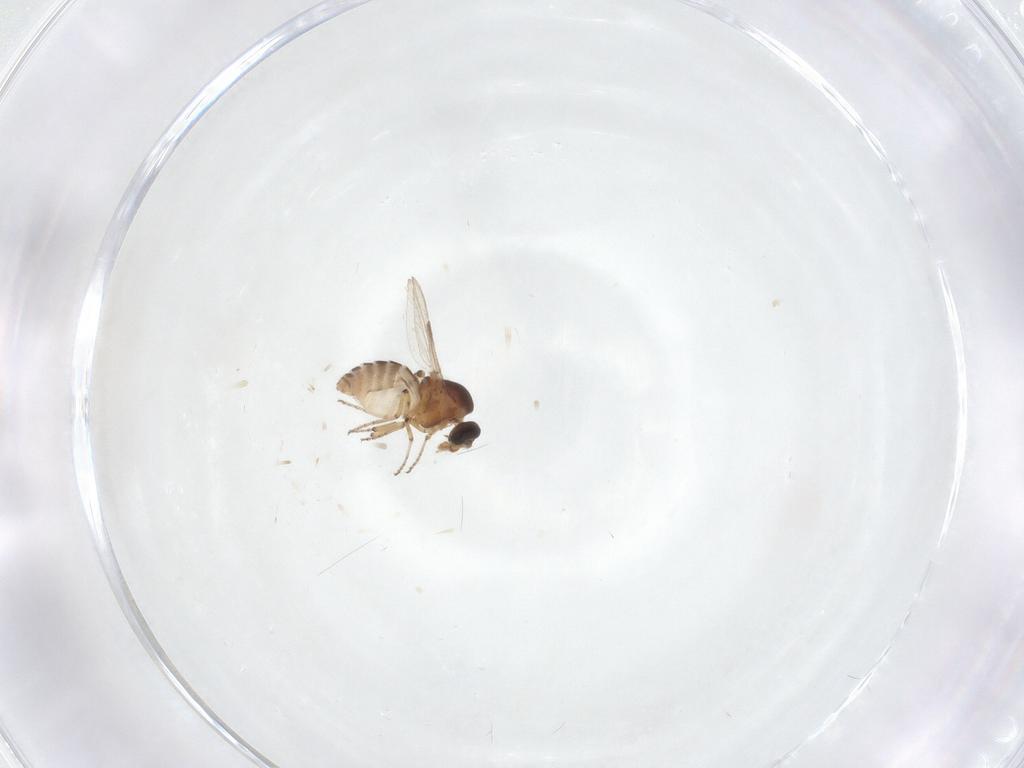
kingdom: Animalia
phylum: Arthropoda
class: Insecta
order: Diptera
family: Ceratopogonidae
